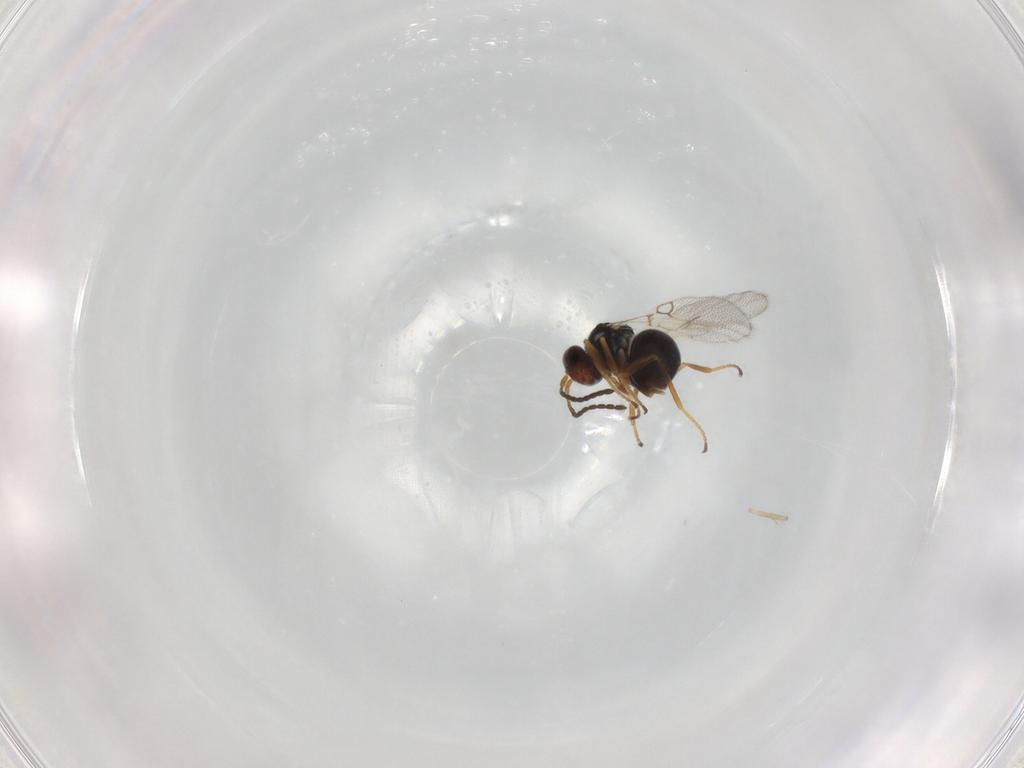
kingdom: Animalia
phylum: Arthropoda
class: Insecta
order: Hymenoptera
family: Figitidae
